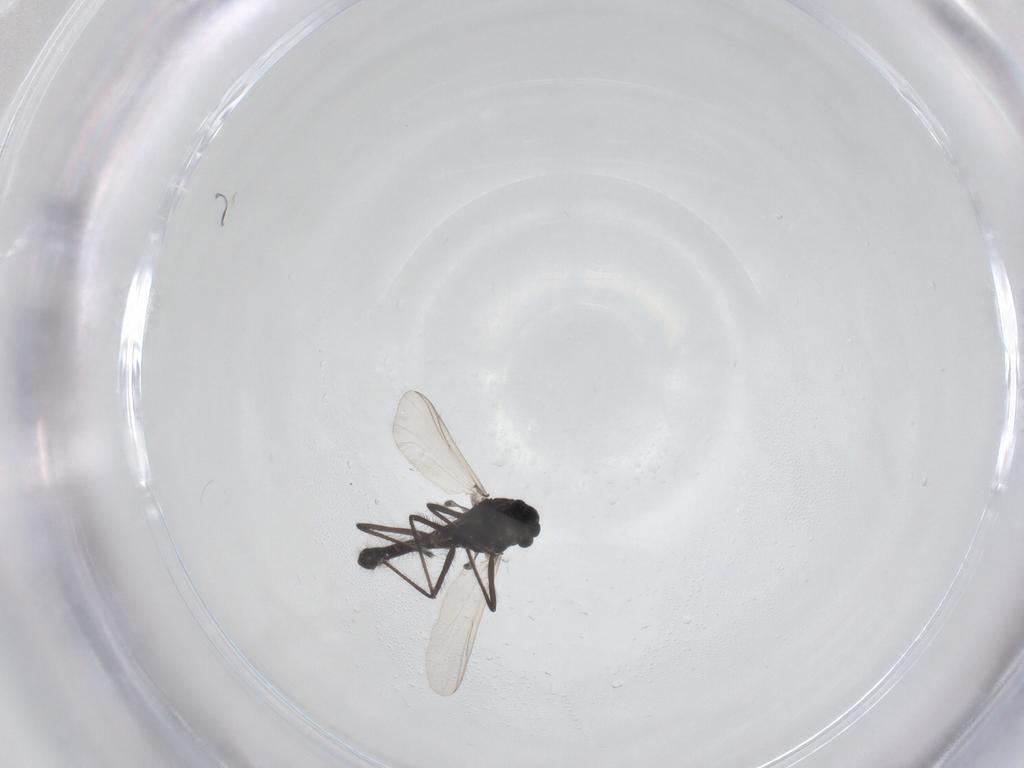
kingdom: Animalia
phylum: Arthropoda
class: Insecta
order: Diptera
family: Chironomidae
